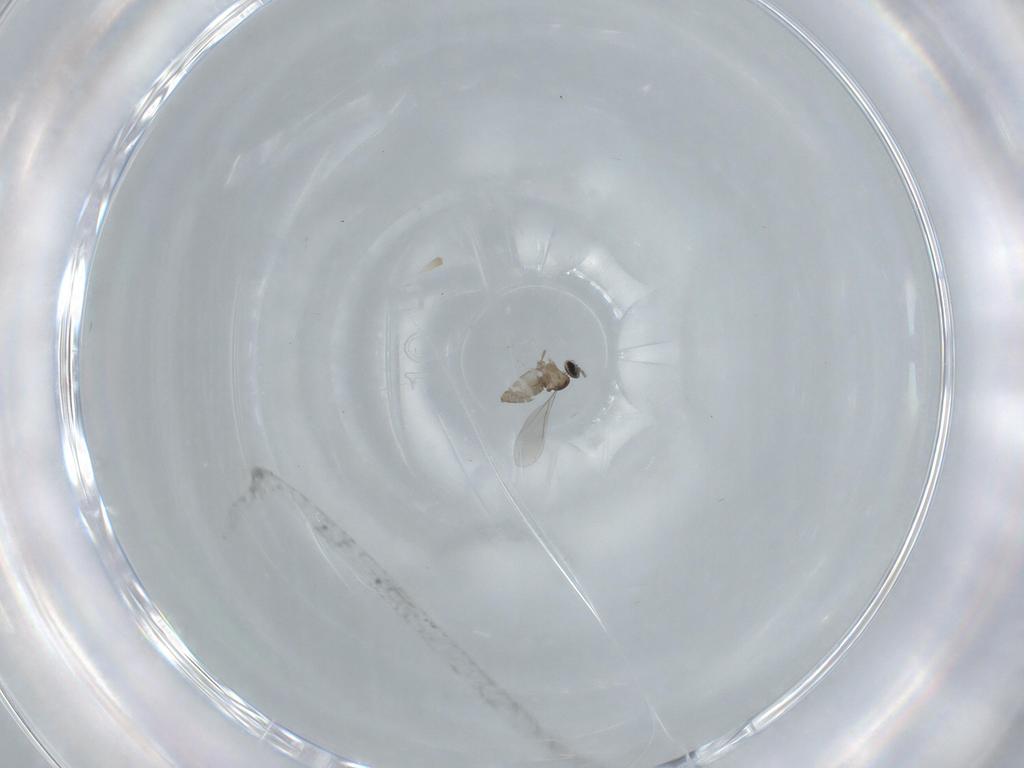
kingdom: Animalia
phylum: Arthropoda
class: Insecta
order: Diptera
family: Cecidomyiidae
